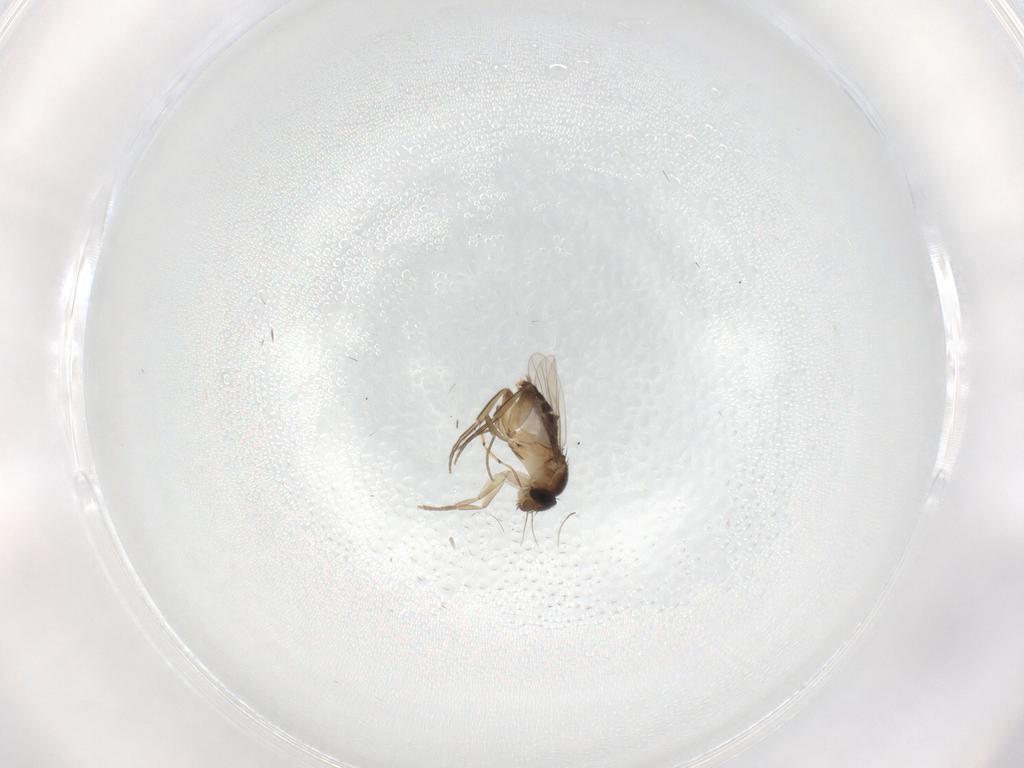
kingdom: Animalia
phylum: Arthropoda
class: Insecta
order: Diptera
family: Ceratopogonidae
